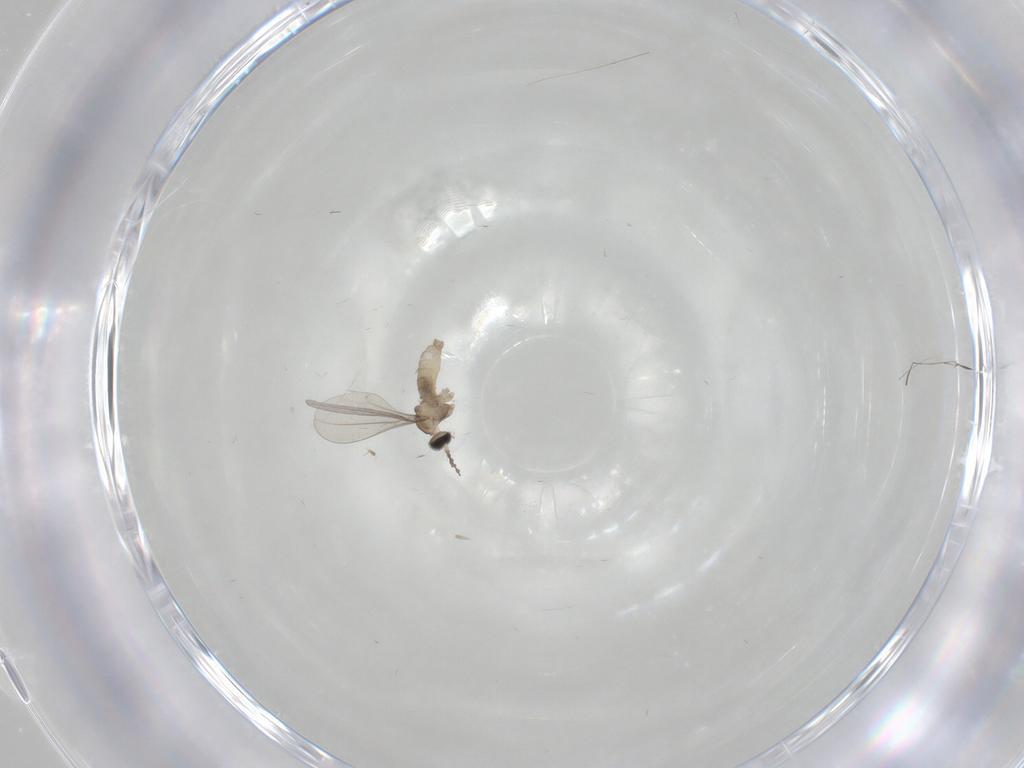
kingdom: Animalia
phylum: Arthropoda
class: Insecta
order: Diptera
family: Cecidomyiidae
